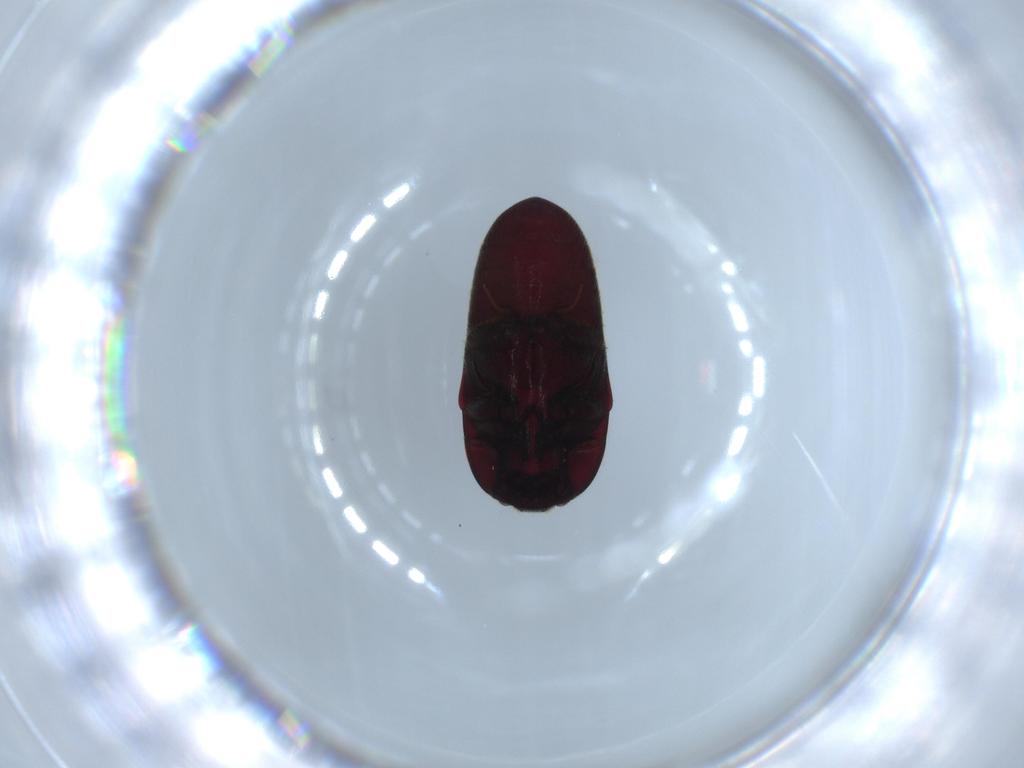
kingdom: Animalia
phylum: Arthropoda
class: Insecta
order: Coleoptera
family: Throscidae
